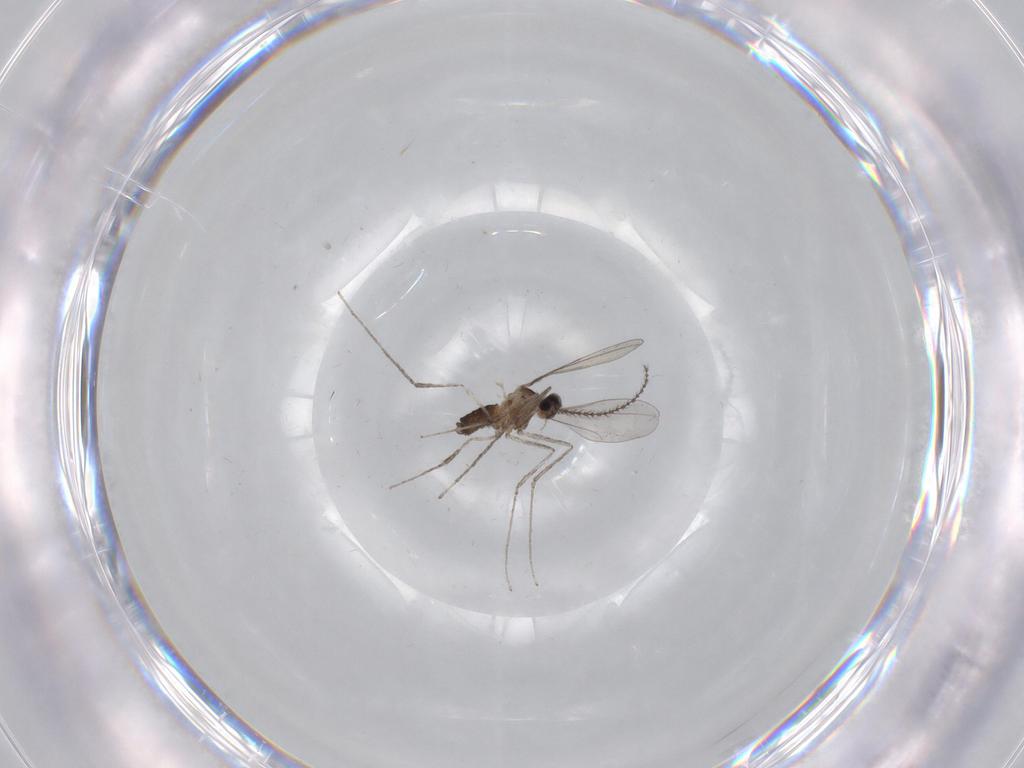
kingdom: Animalia
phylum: Arthropoda
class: Insecta
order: Diptera
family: Cecidomyiidae
